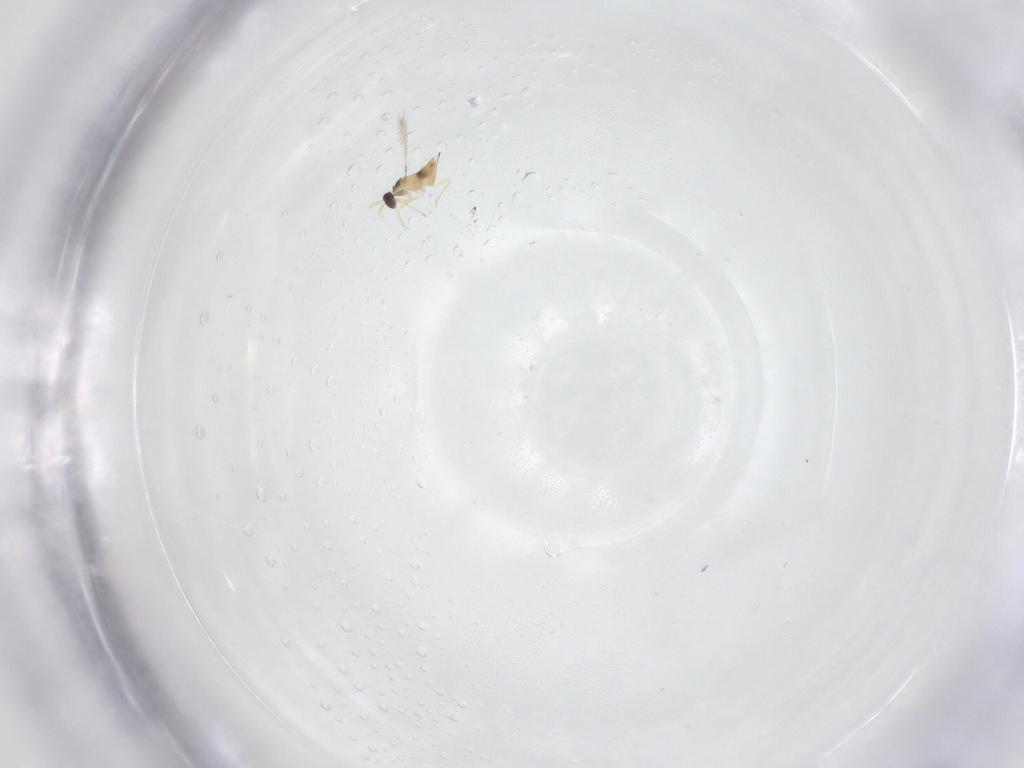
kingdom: Animalia
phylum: Arthropoda
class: Insecta
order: Hymenoptera
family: Mymaridae
